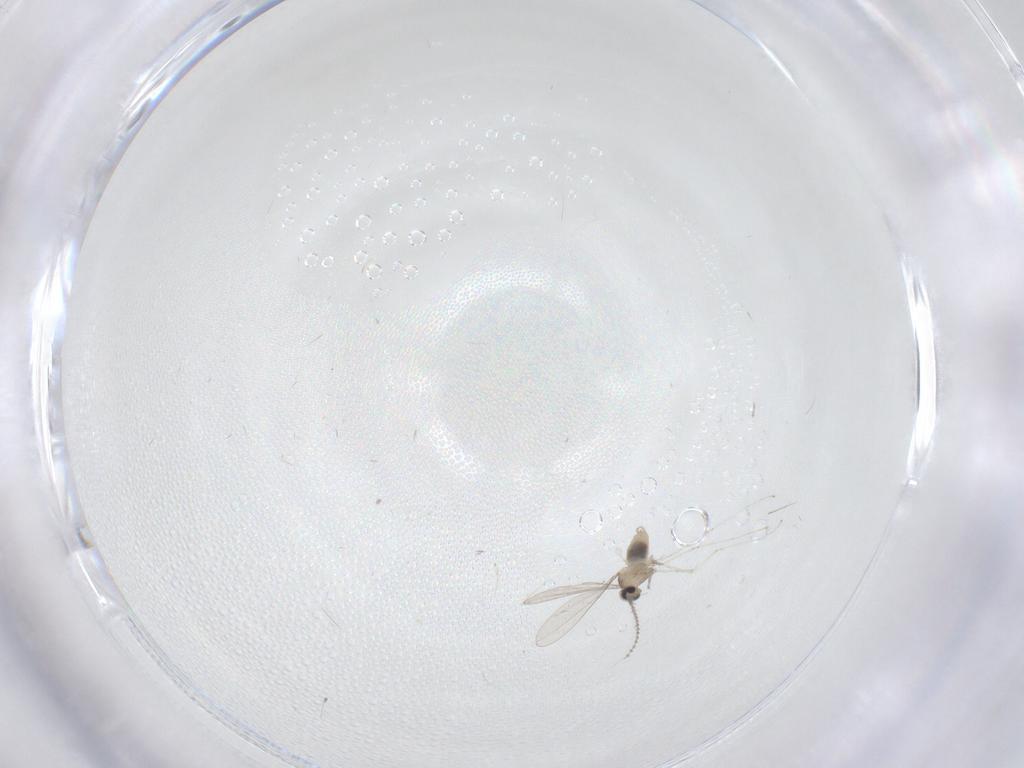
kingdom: Animalia
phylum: Arthropoda
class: Insecta
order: Diptera
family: Cecidomyiidae
